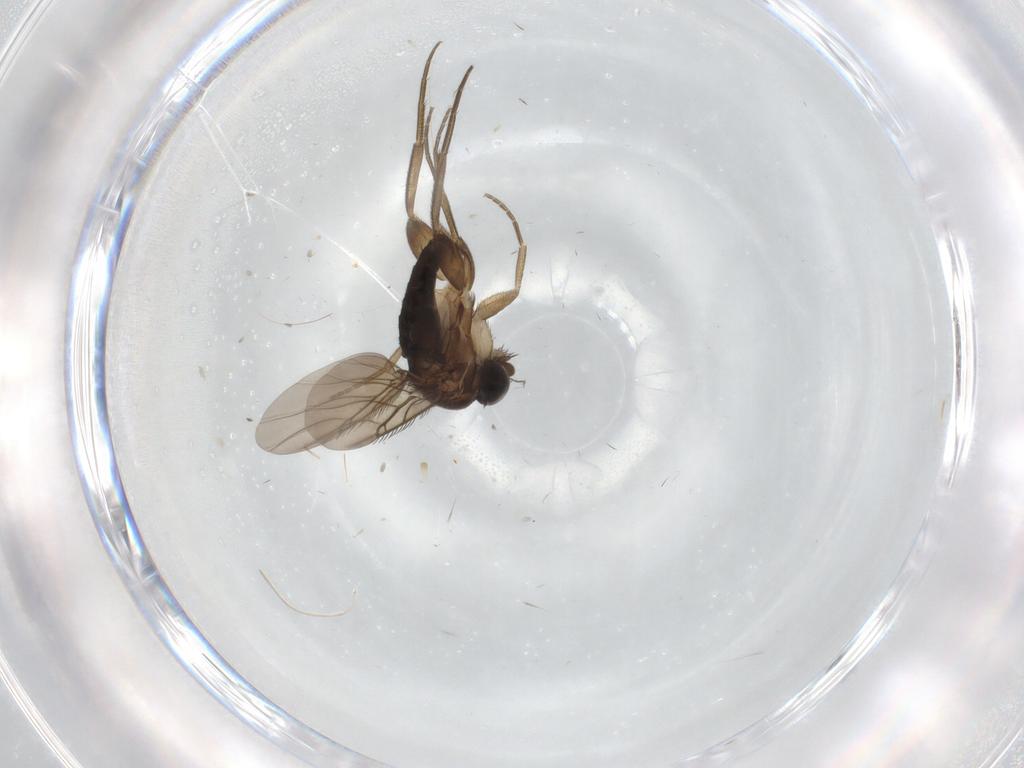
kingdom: Animalia
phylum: Arthropoda
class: Insecta
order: Diptera
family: Phoridae
